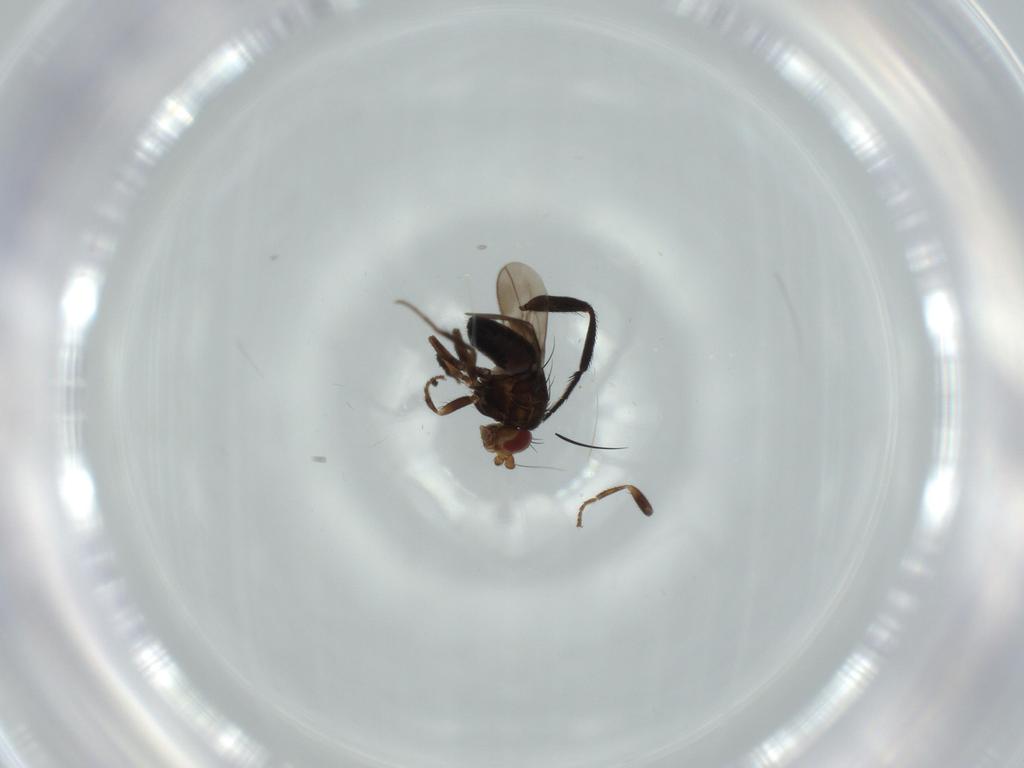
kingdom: Animalia
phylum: Arthropoda
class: Insecta
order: Diptera
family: Sphaeroceridae
